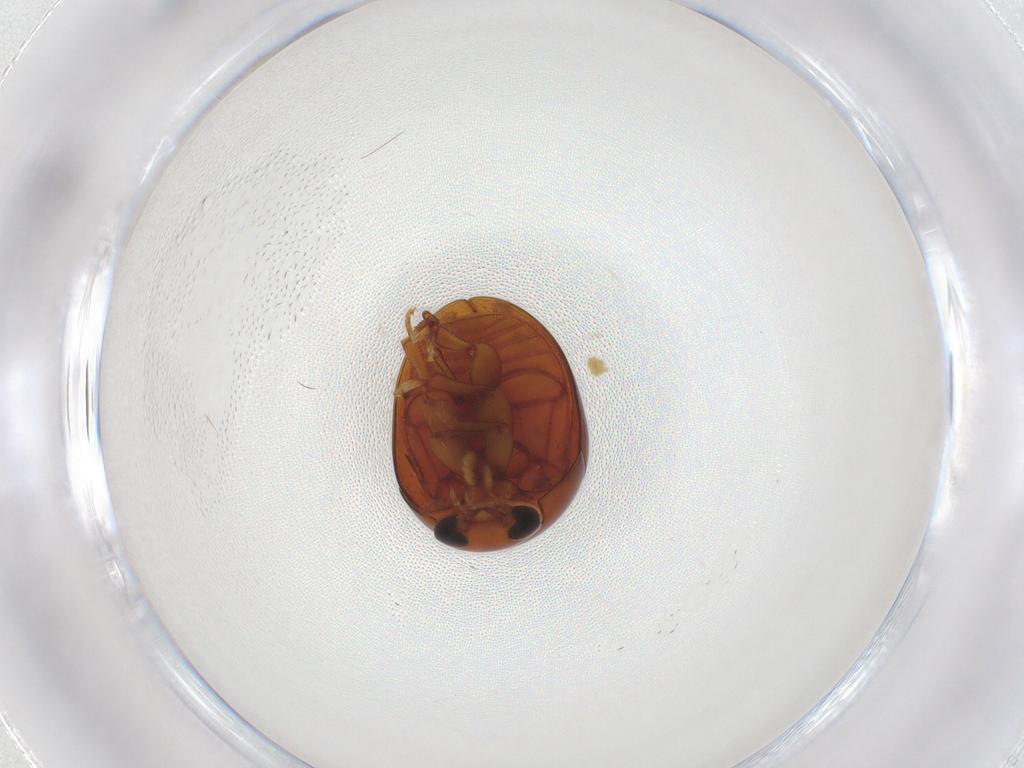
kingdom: Animalia
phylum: Arthropoda
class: Insecta
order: Coleoptera
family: Phalacridae
